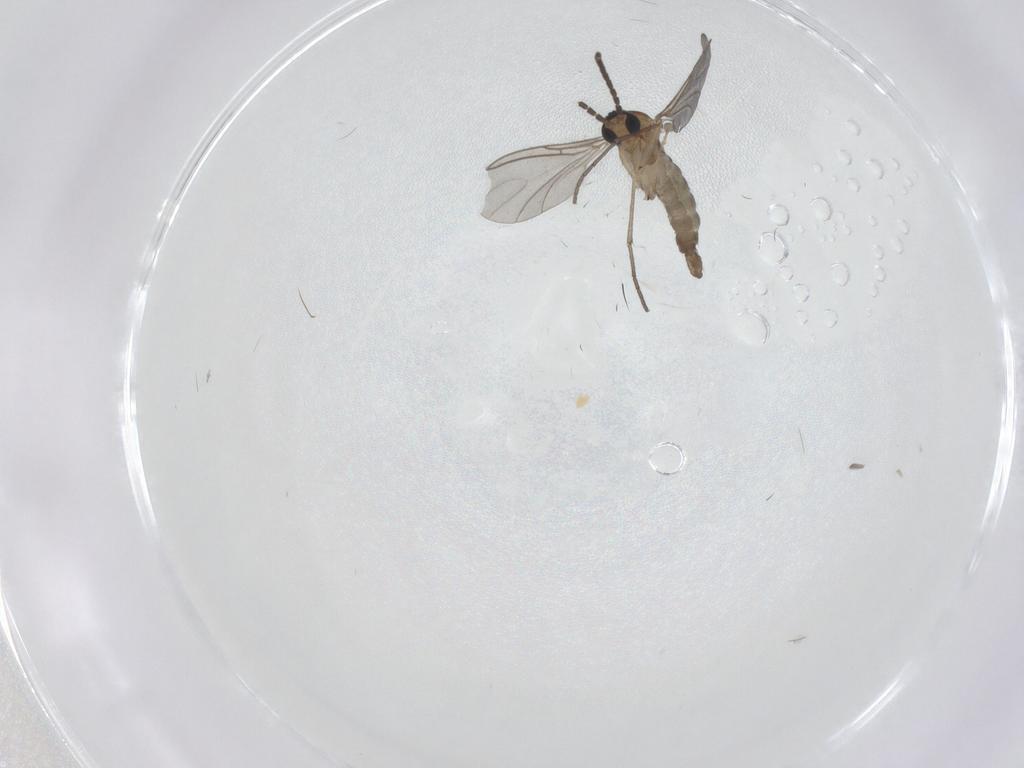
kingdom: Animalia
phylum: Arthropoda
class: Insecta
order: Diptera
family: Sciaridae
